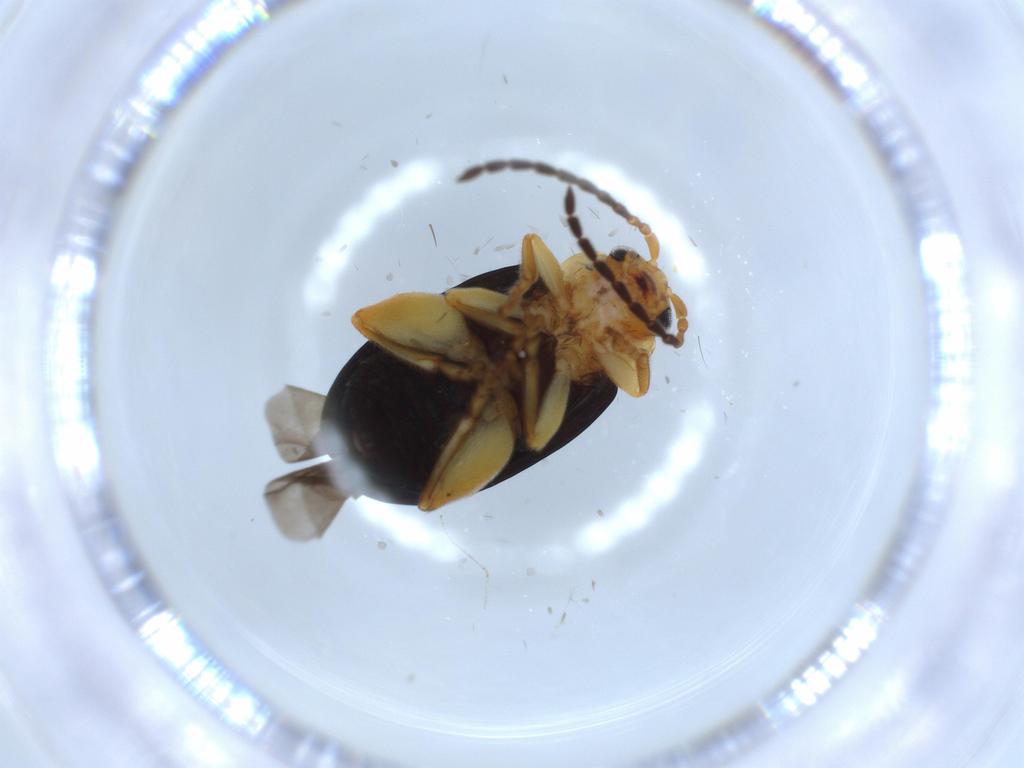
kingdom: Animalia
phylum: Arthropoda
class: Insecta
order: Coleoptera
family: Chrysomelidae
